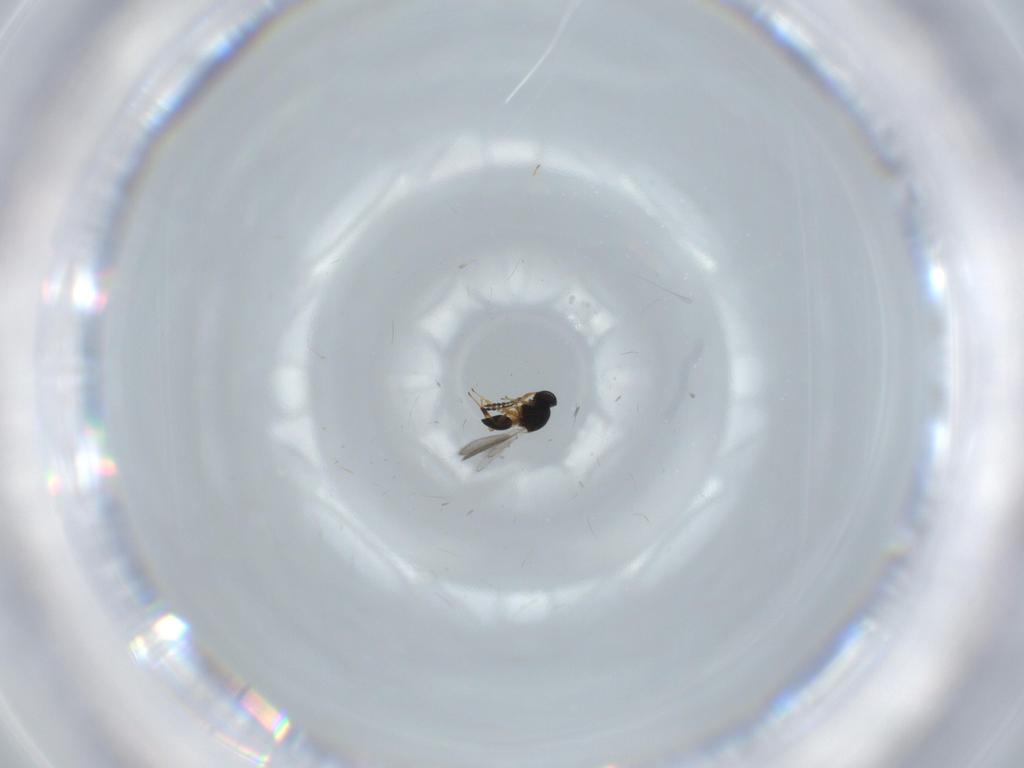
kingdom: Animalia
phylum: Arthropoda
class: Insecta
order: Hymenoptera
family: Platygastridae
